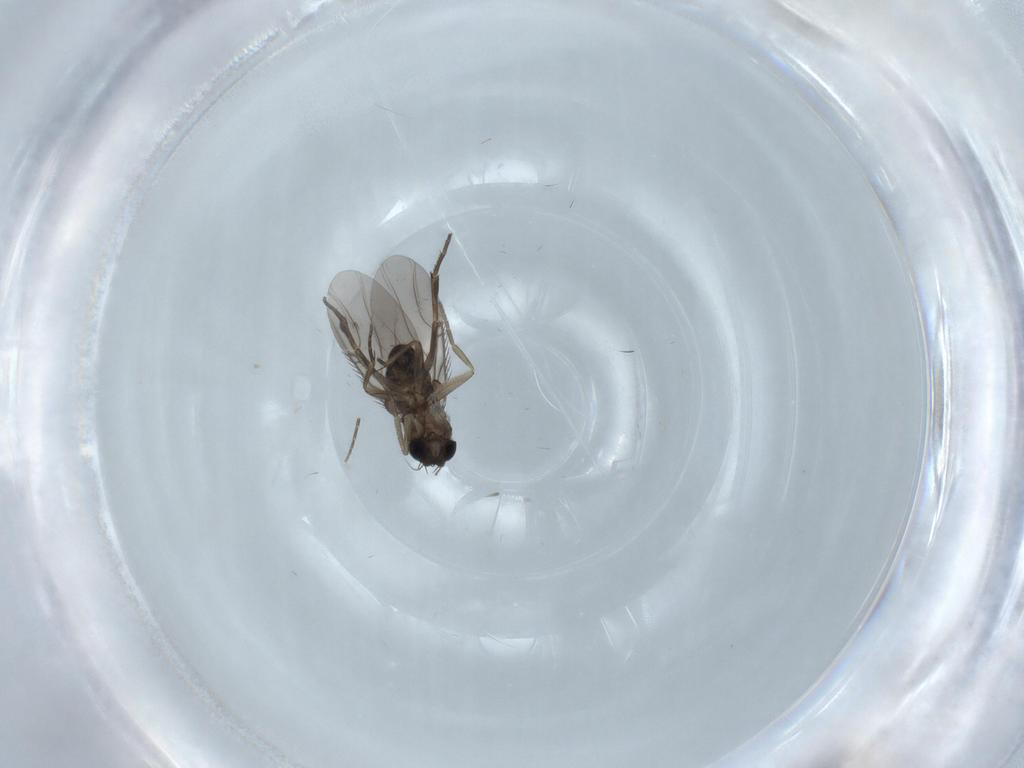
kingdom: Animalia
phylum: Arthropoda
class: Insecta
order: Diptera
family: Phoridae
